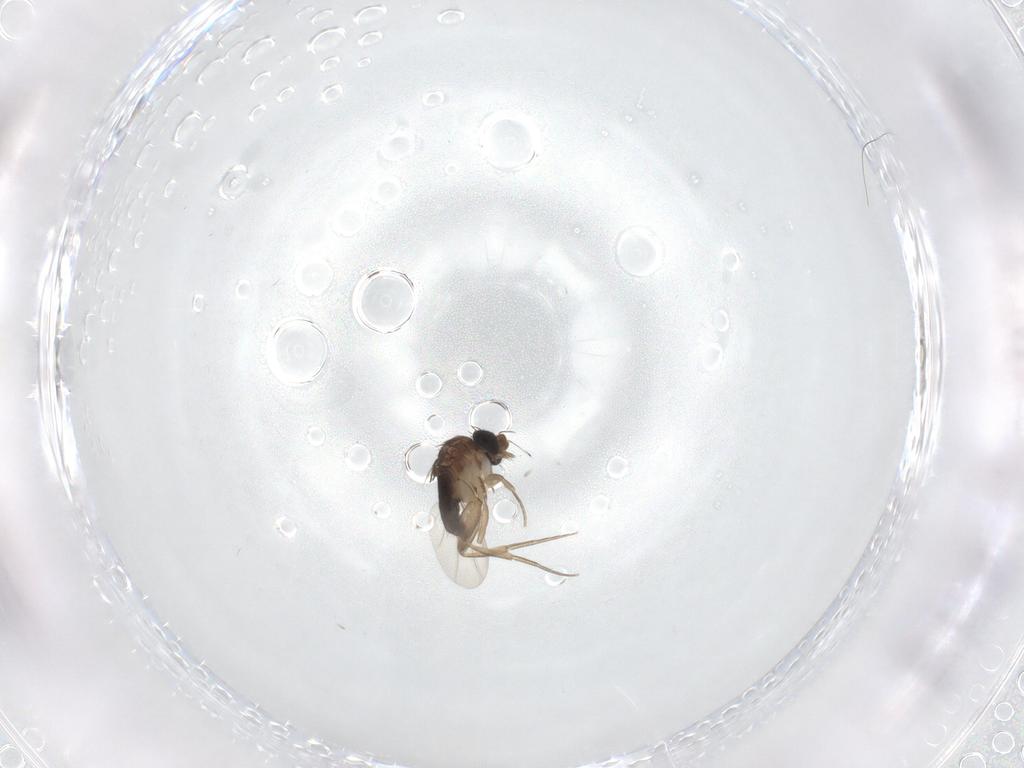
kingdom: Animalia
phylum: Arthropoda
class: Insecta
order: Diptera
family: Phoridae
